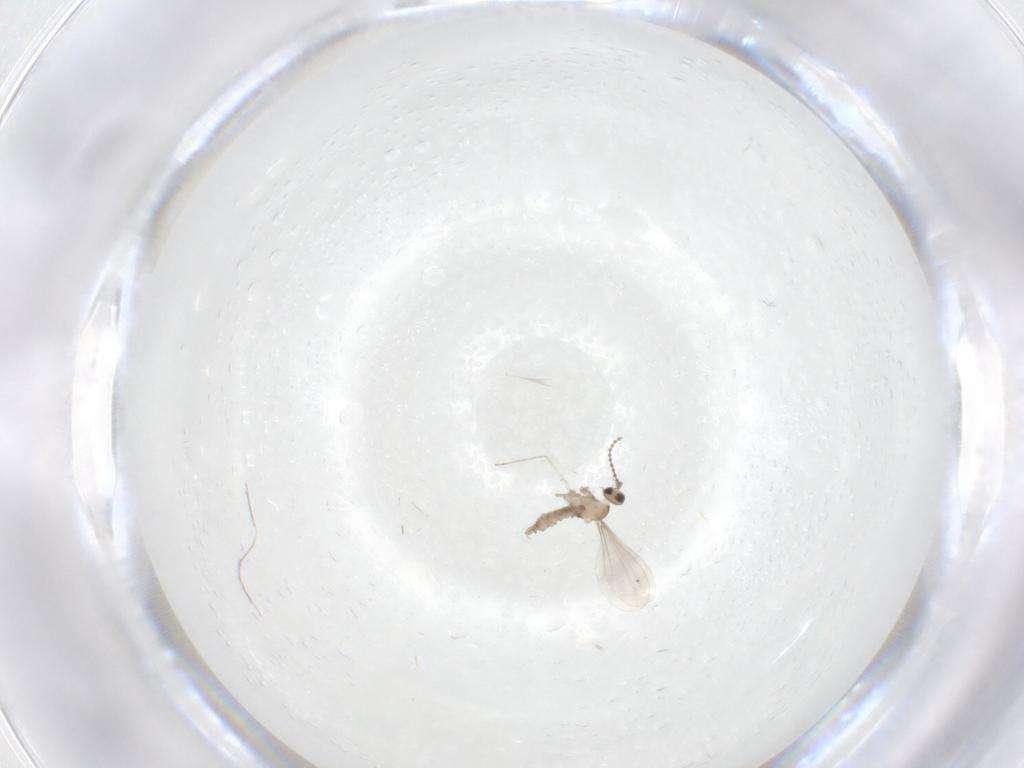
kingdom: Animalia
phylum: Arthropoda
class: Insecta
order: Diptera
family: Cecidomyiidae
